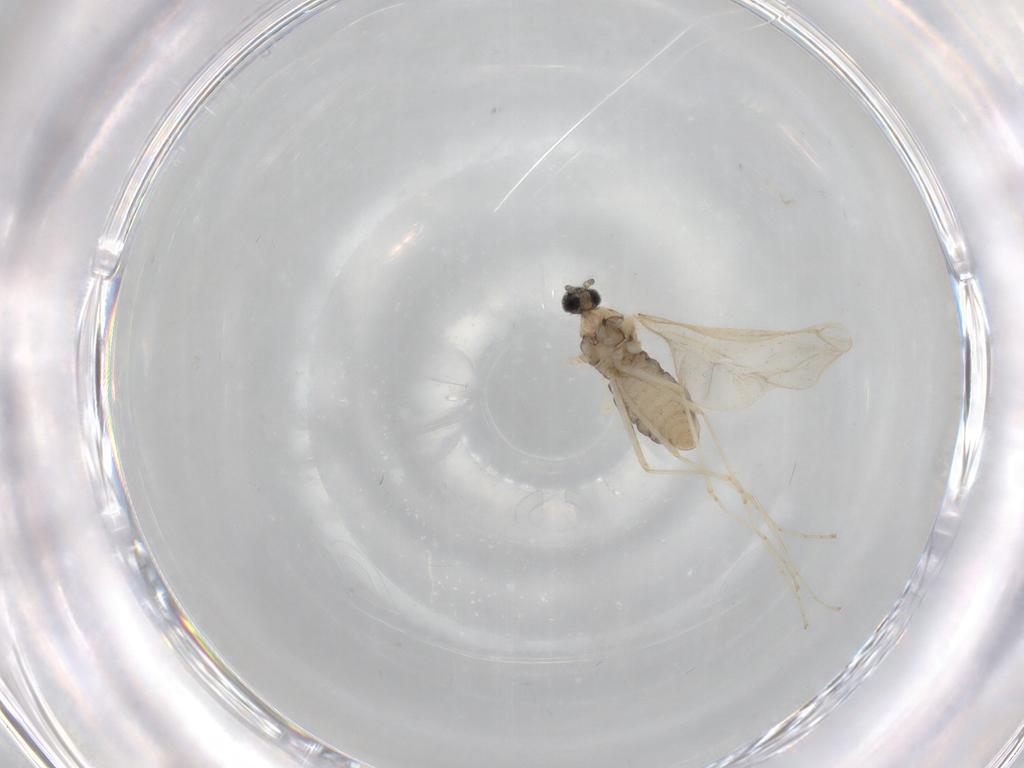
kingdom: Animalia
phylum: Arthropoda
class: Insecta
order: Diptera
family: Cecidomyiidae
